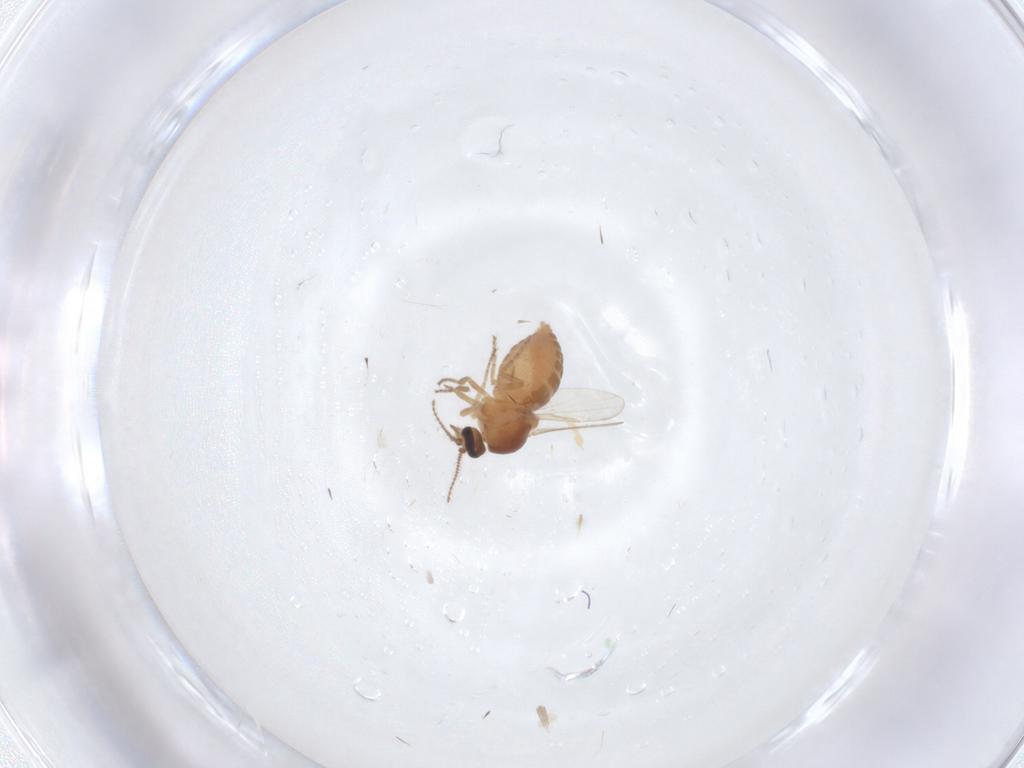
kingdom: Animalia
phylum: Arthropoda
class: Insecta
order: Diptera
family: Ceratopogonidae
